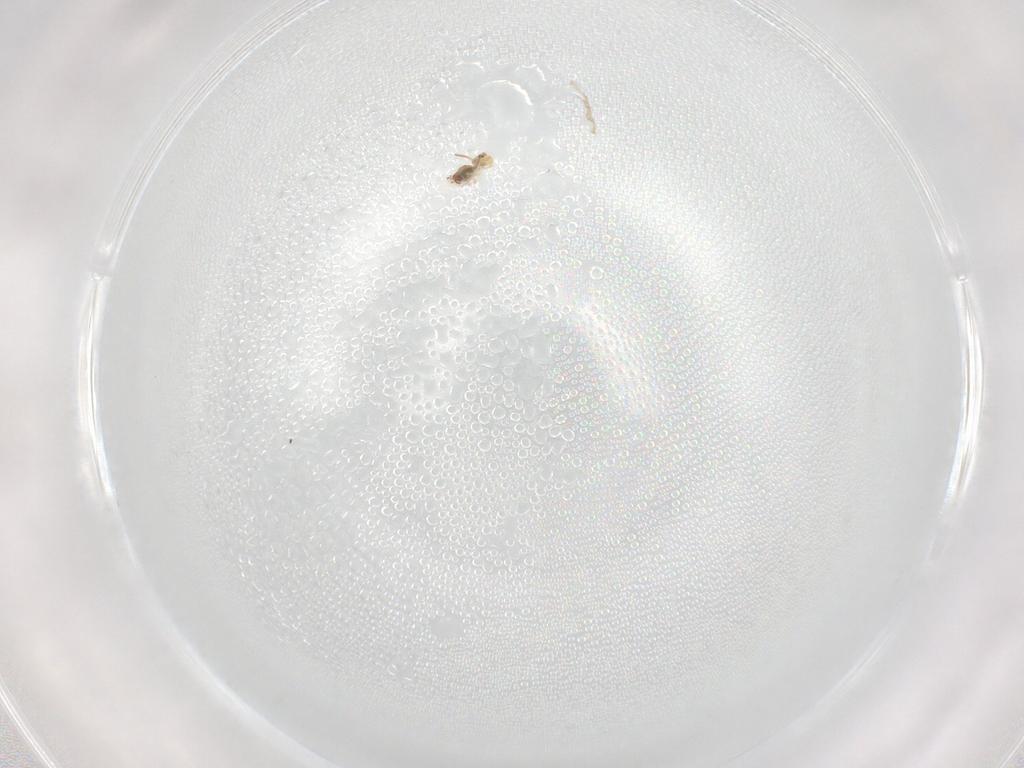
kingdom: Animalia
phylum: Arthropoda
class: Collembola
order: Symphypleona
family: Bourletiellidae
